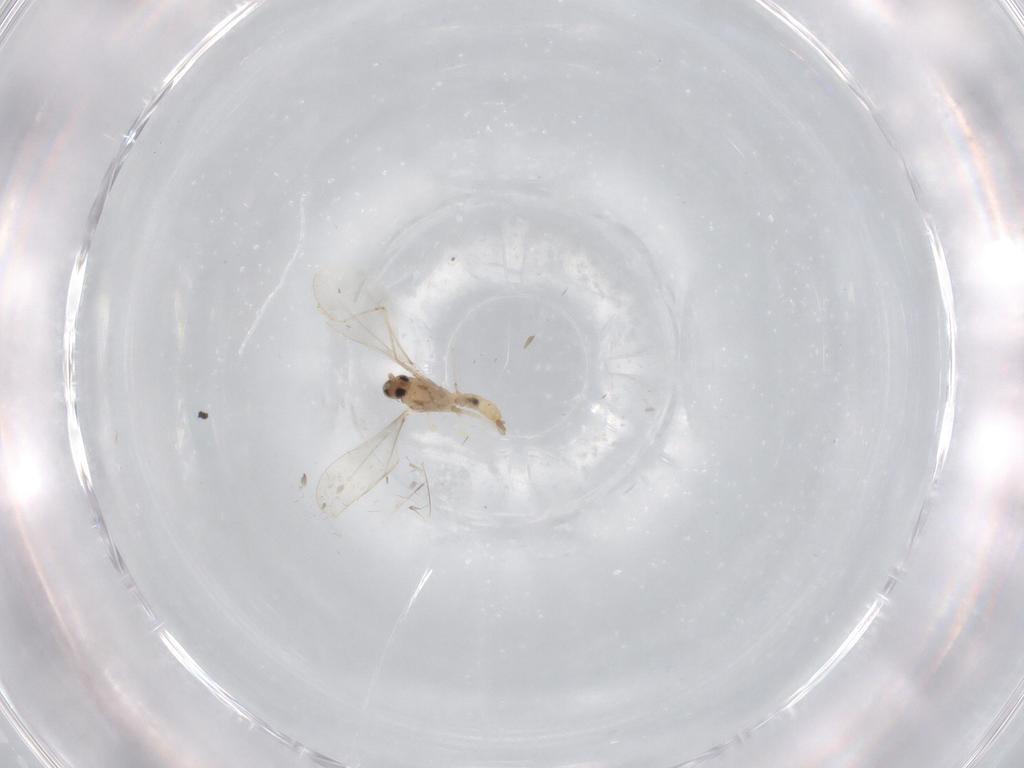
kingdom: Animalia
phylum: Arthropoda
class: Insecta
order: Diptera
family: Cecidomyiidae
